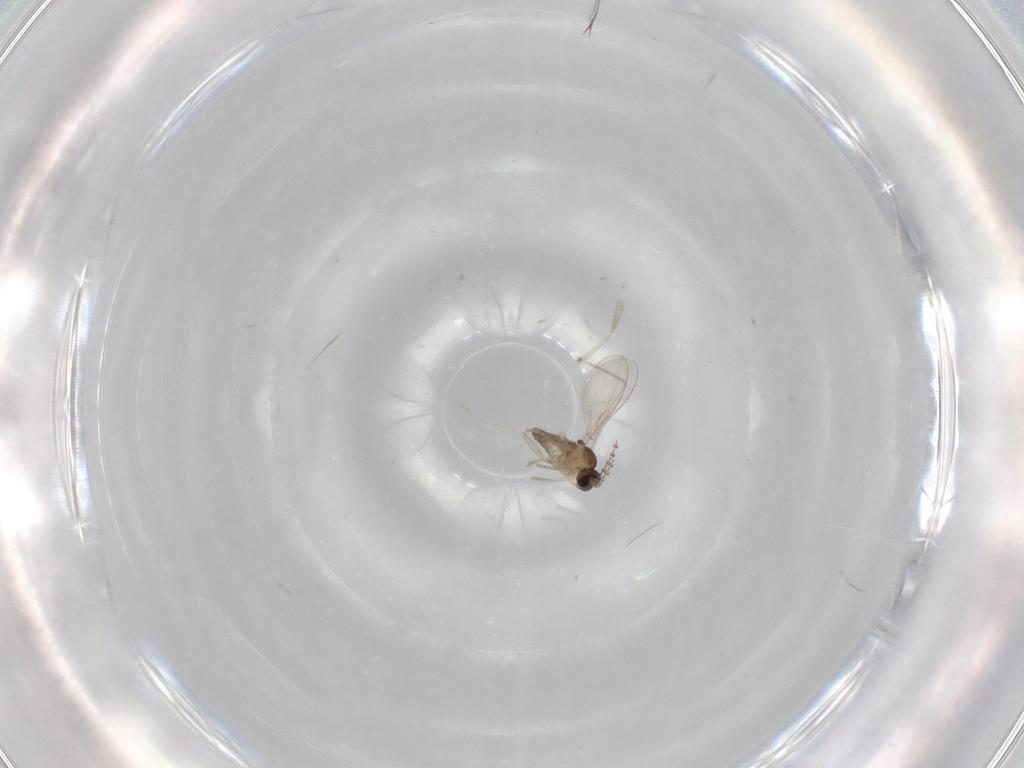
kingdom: Animalia
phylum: Arthropoda
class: Insecta
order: Diptera
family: Cecidomyiidae
